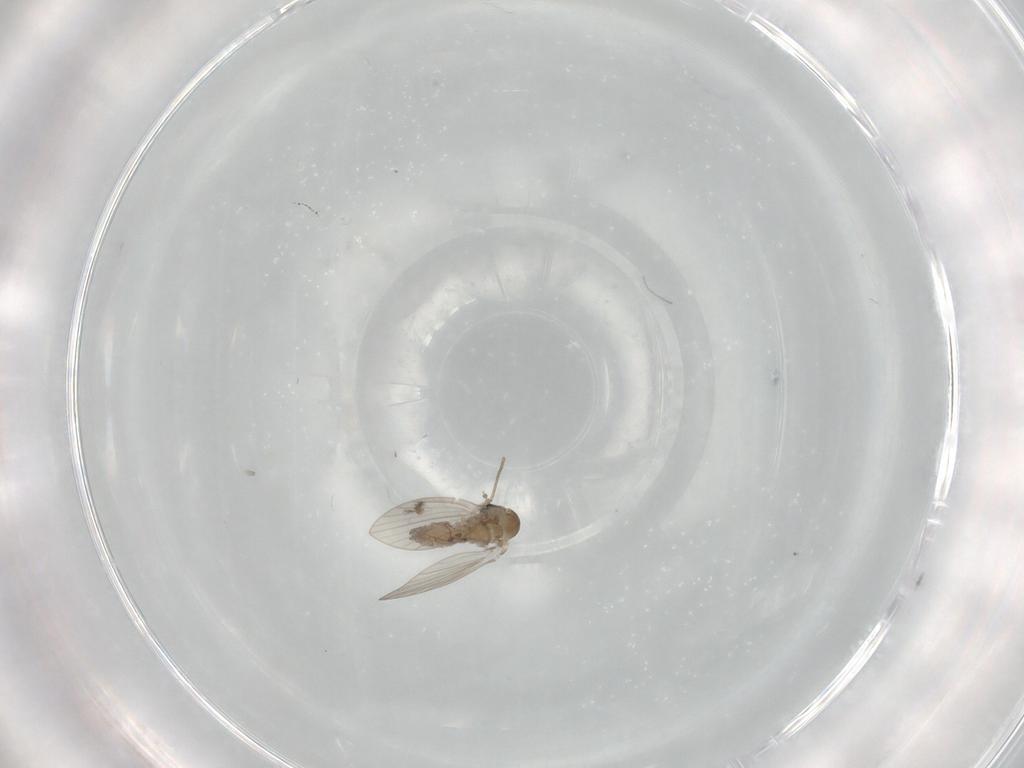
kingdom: Animalia
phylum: Arthropoda
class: Insecta
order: Diptera
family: Psychodidae
